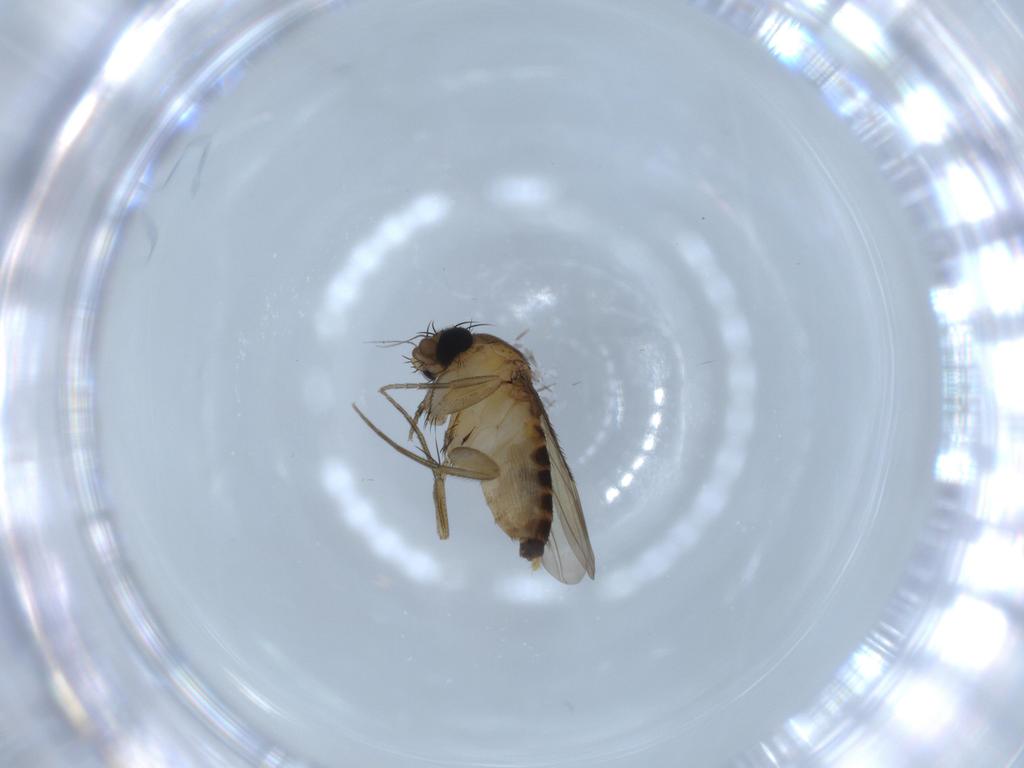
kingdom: Animalia
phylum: Arthropoda
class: Insecta
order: Diptera
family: Phoridae
